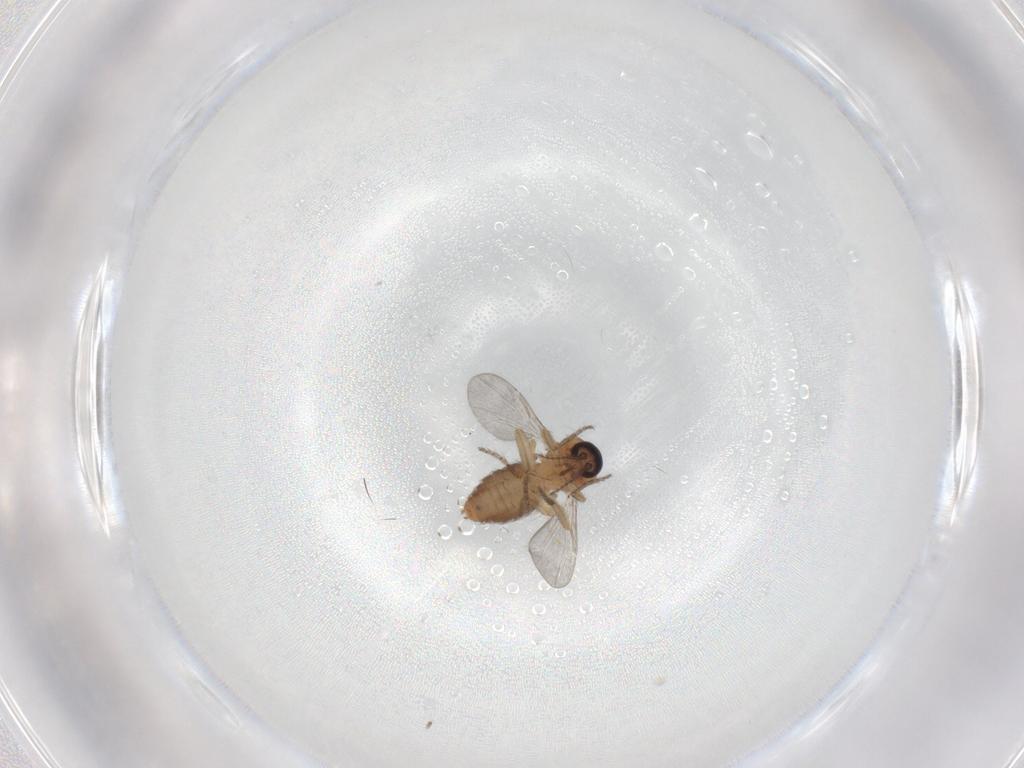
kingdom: Animalia
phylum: Arthropoda
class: Insecta
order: Diptera
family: Ceratopogonidae
